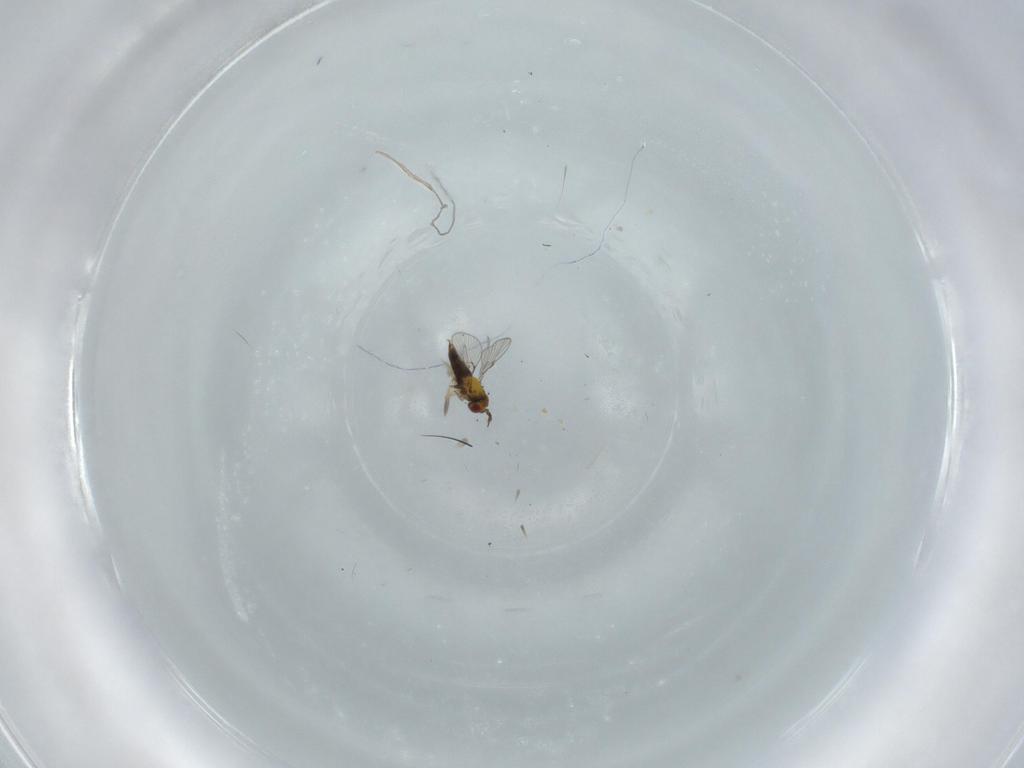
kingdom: Animalia
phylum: Arthropoda
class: Insecta
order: Hymenoptera
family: Trichogrammatidae
